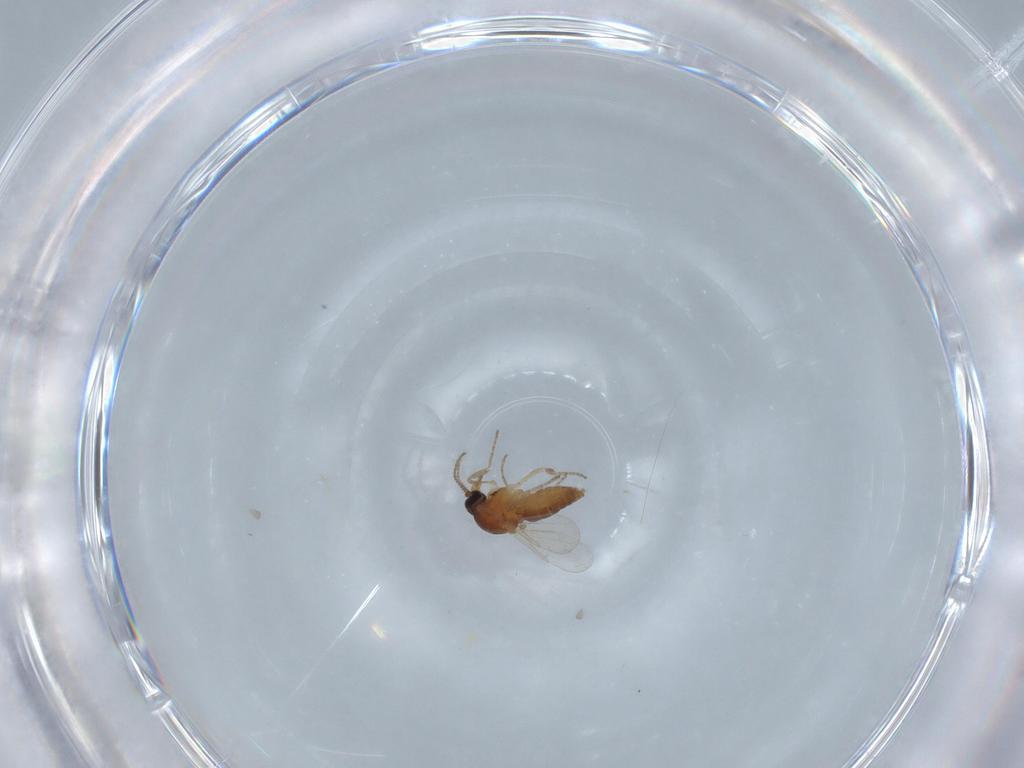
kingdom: Animalia
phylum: Arthropoda
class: Insecta
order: Diptera
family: Ceratopogonidae
